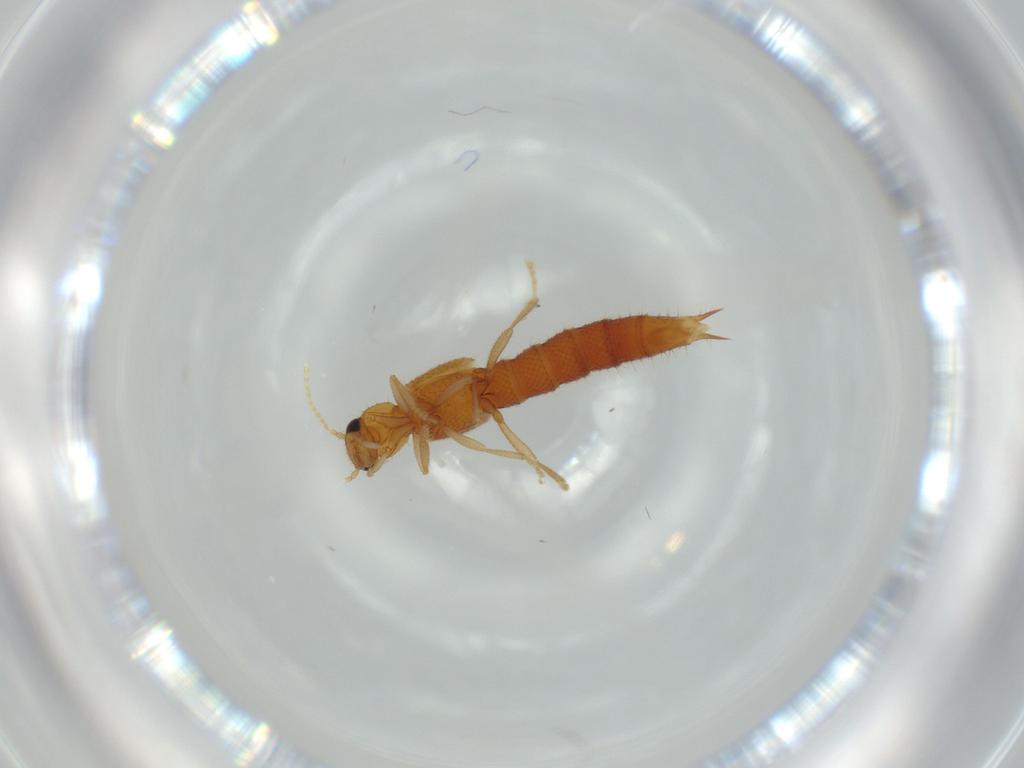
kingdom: Animalia
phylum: Arthropoda
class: Insecta
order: Coleoptera
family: Staphylinidae
